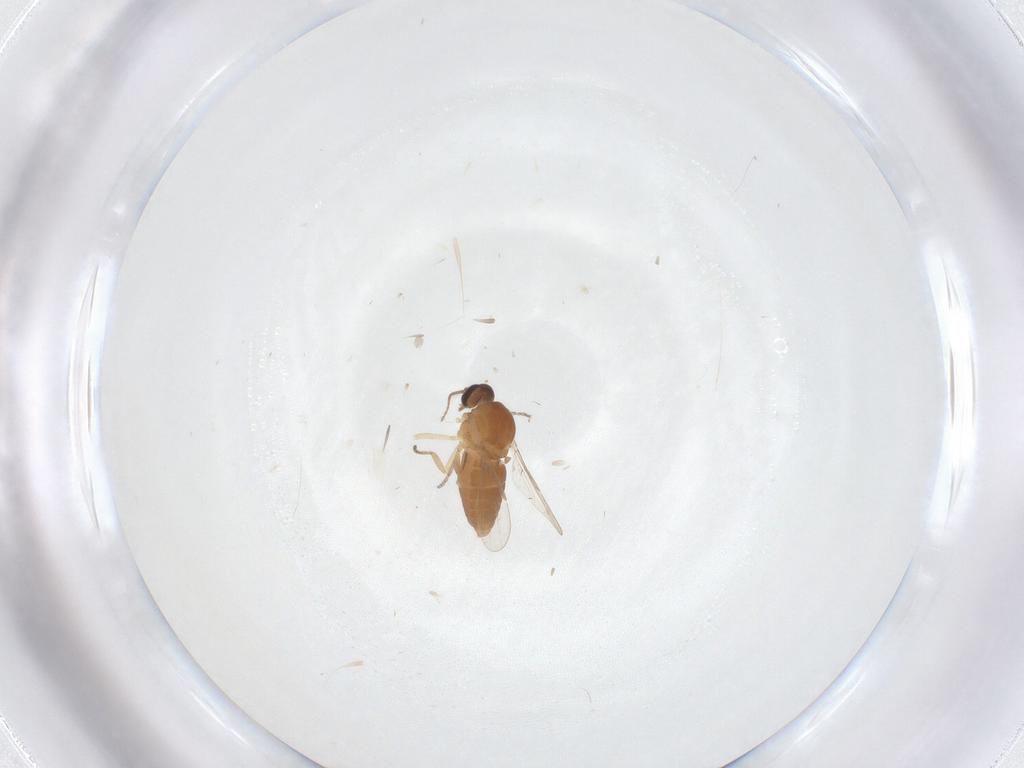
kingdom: Animalia
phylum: Arthropoda
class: Insecta
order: Diptera
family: Ceratopogonidae
